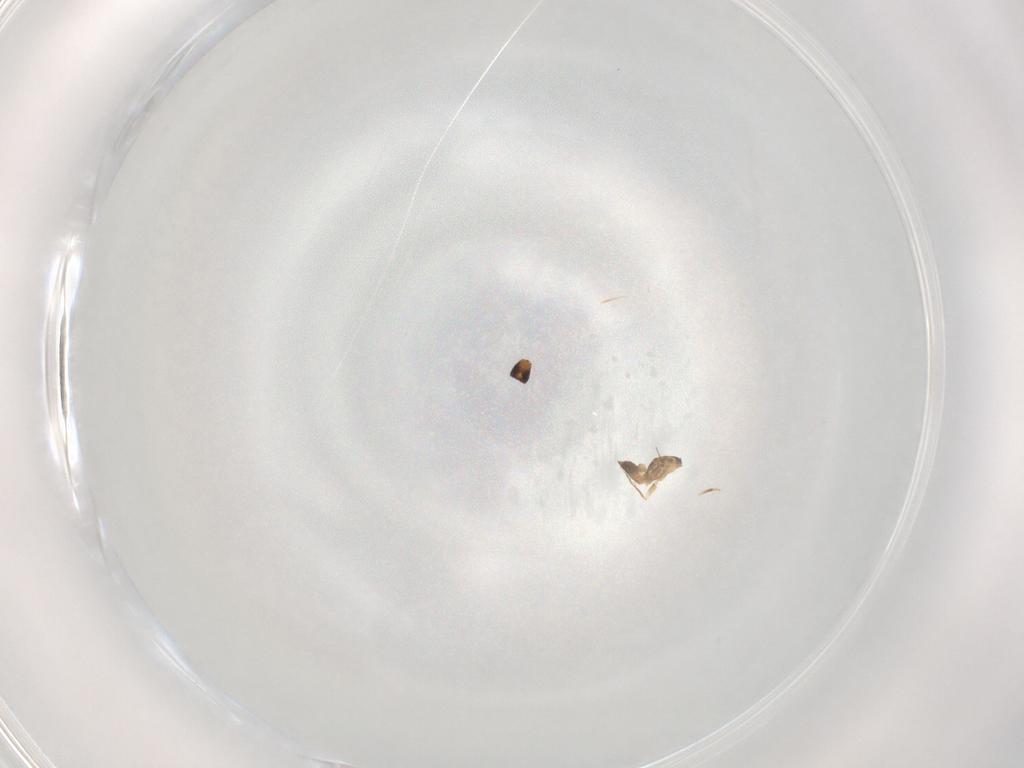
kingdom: Animalia
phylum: Arthropoda
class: Insecta
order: Hymenoptera
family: Mymaridae
